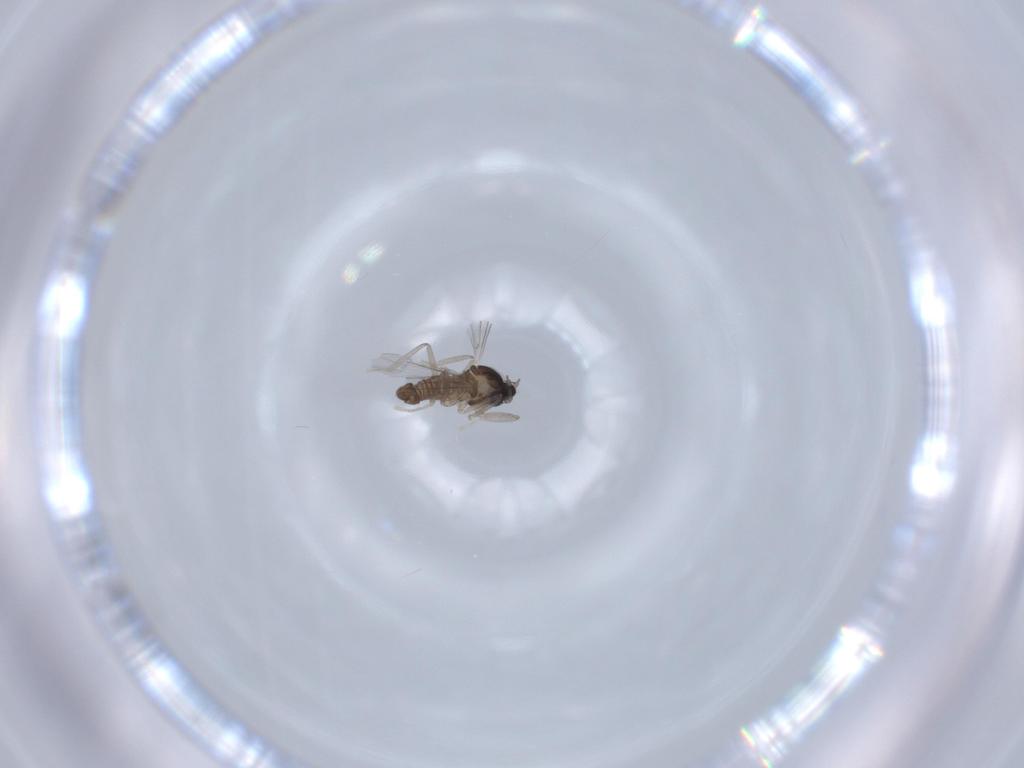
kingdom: Animalia
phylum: Arthropoda
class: Insecta
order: Diptera
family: Cecidomyiidae
